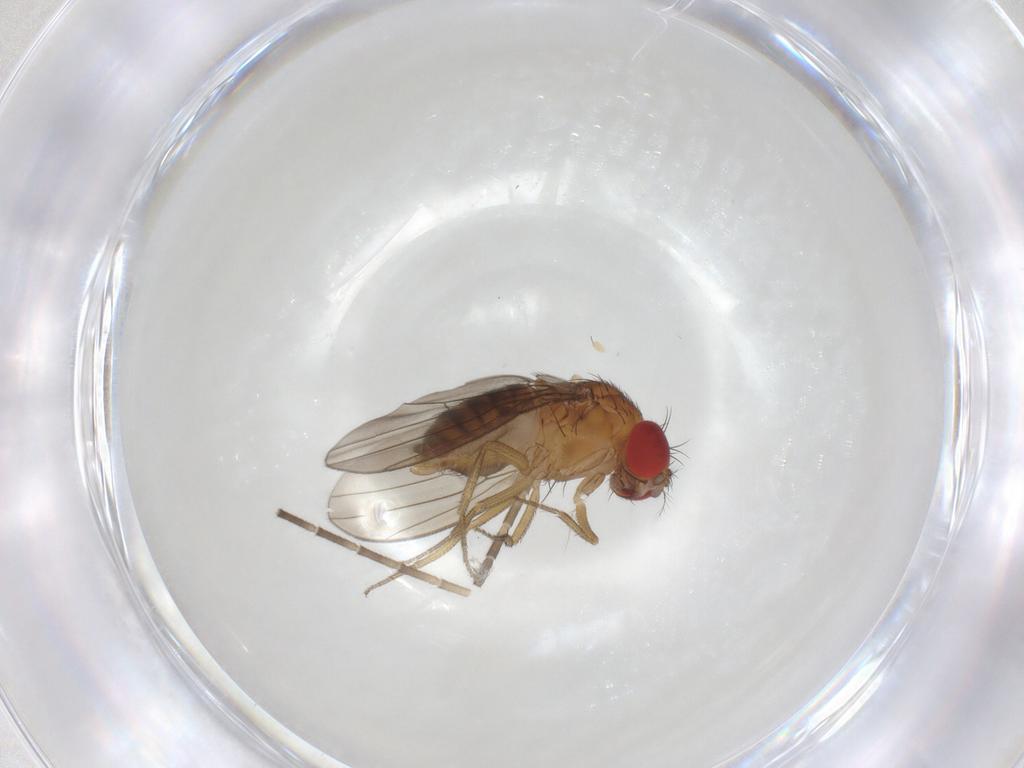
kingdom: Animalia
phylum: Arthropoda
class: Insecta
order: Diptera
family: Drosophilidae
